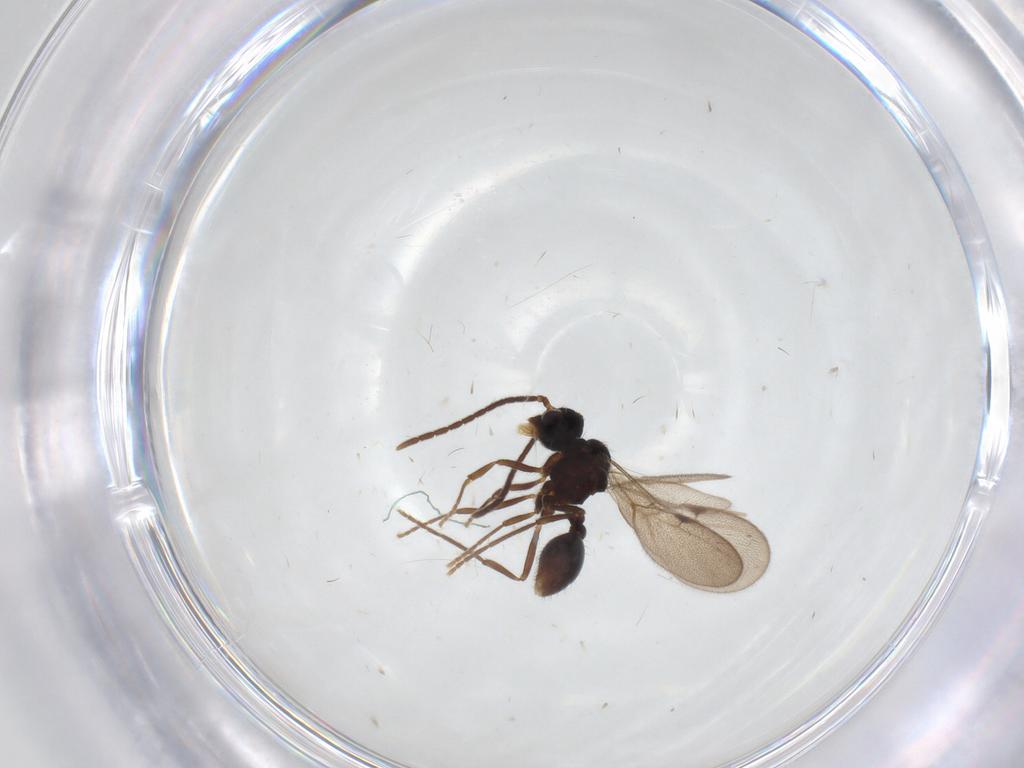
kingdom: Animalia
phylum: Arthropoda
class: Insecta
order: Hymenoptera
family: Formicidae
